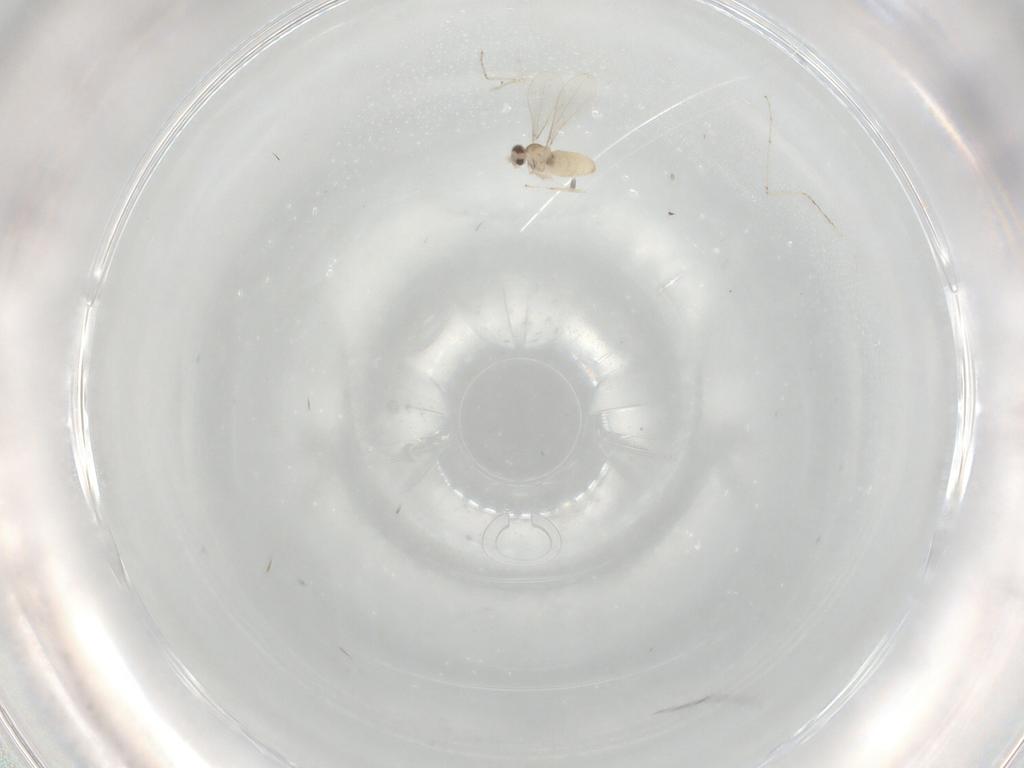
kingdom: Animalia
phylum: Arthropoda
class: Insecta
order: Diptera
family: Cecidomyiidae
